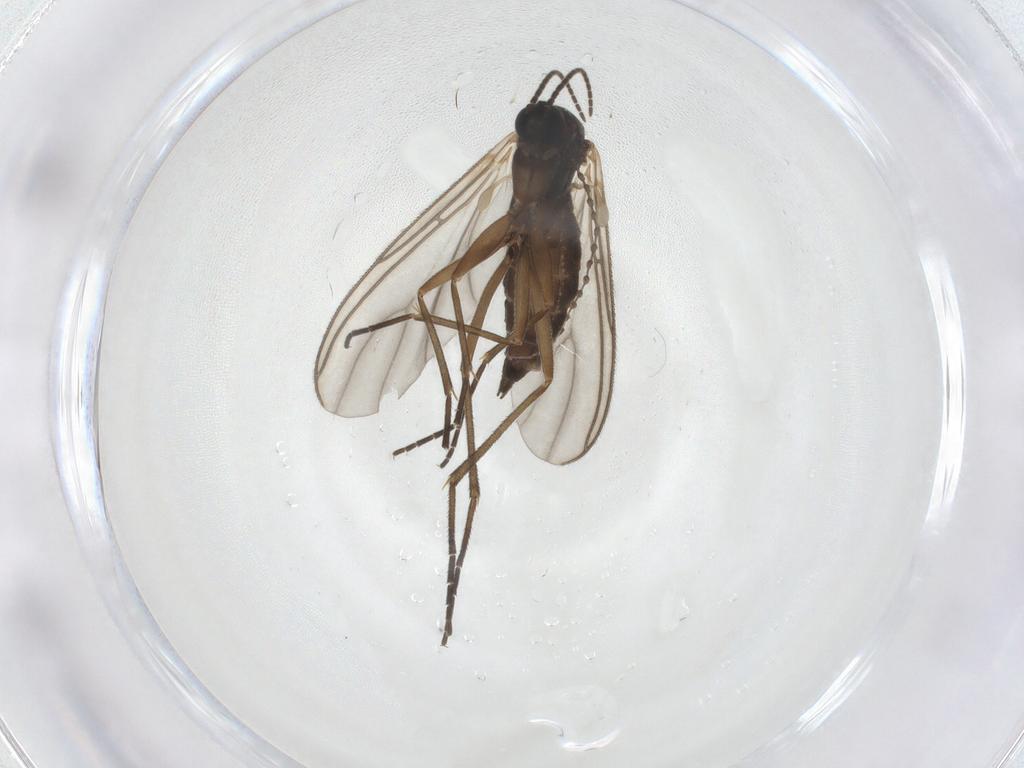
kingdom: Animalia
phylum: Arthropoda
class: Insecta
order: Diptera
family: Sciaridae
